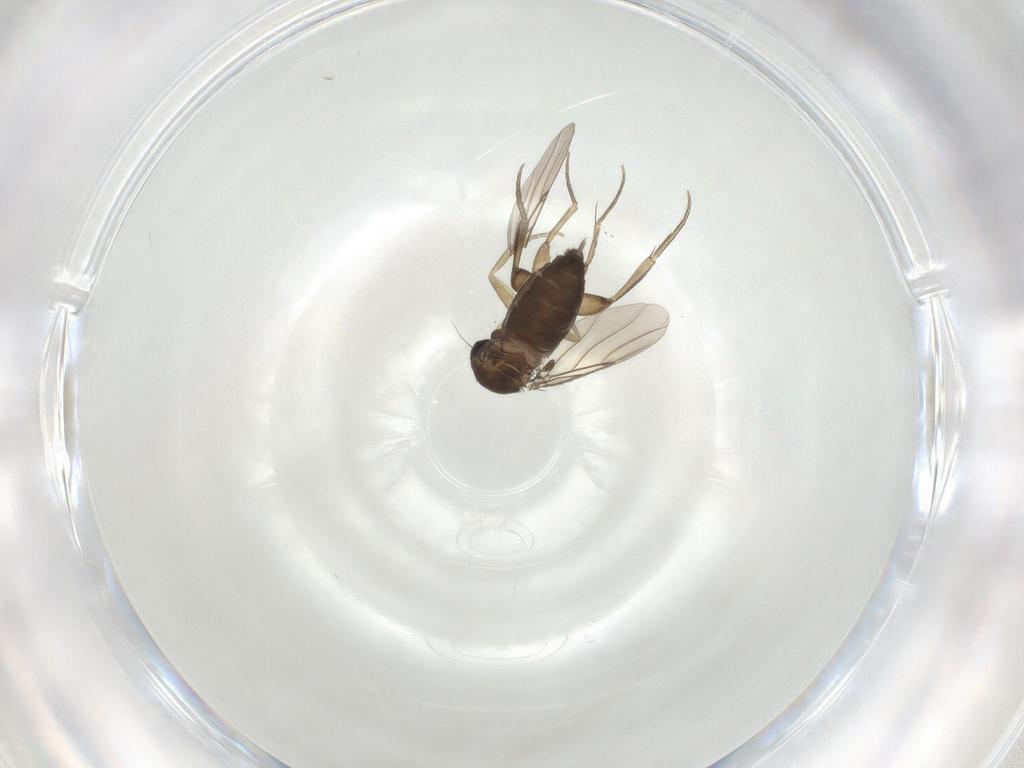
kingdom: Animalia
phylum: Arthropoda
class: Insecta
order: Diptera
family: Phoridae
